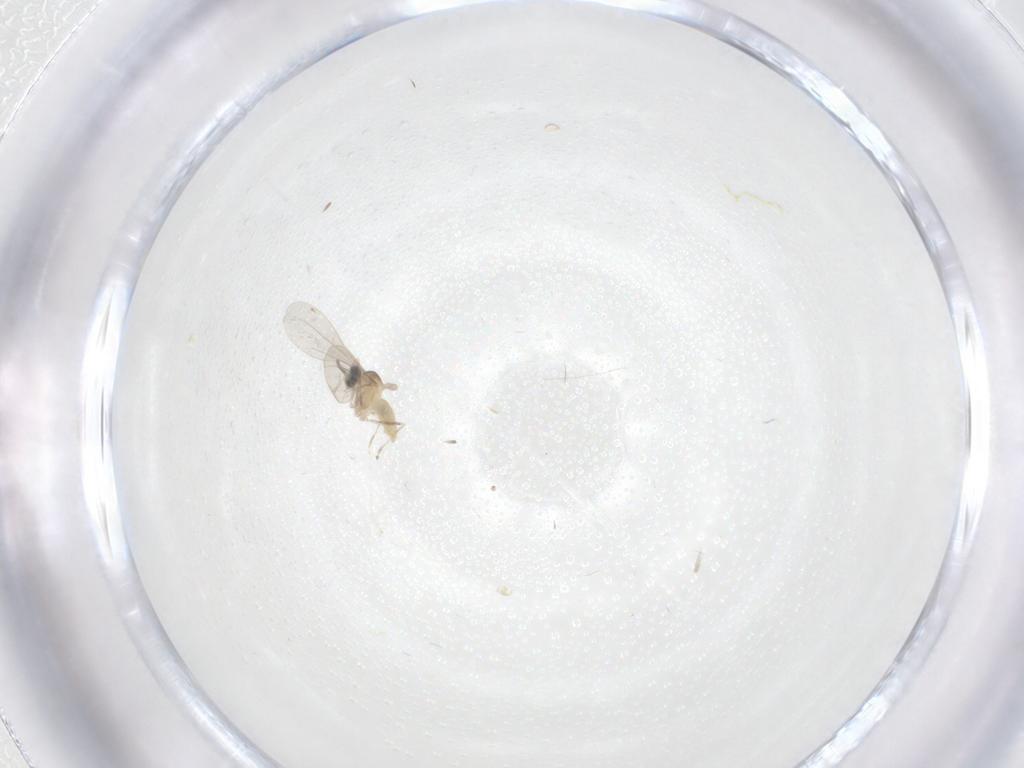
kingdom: Animalia
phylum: Arthropoda
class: Insecta
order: Diptera
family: Cecidomyiidae
